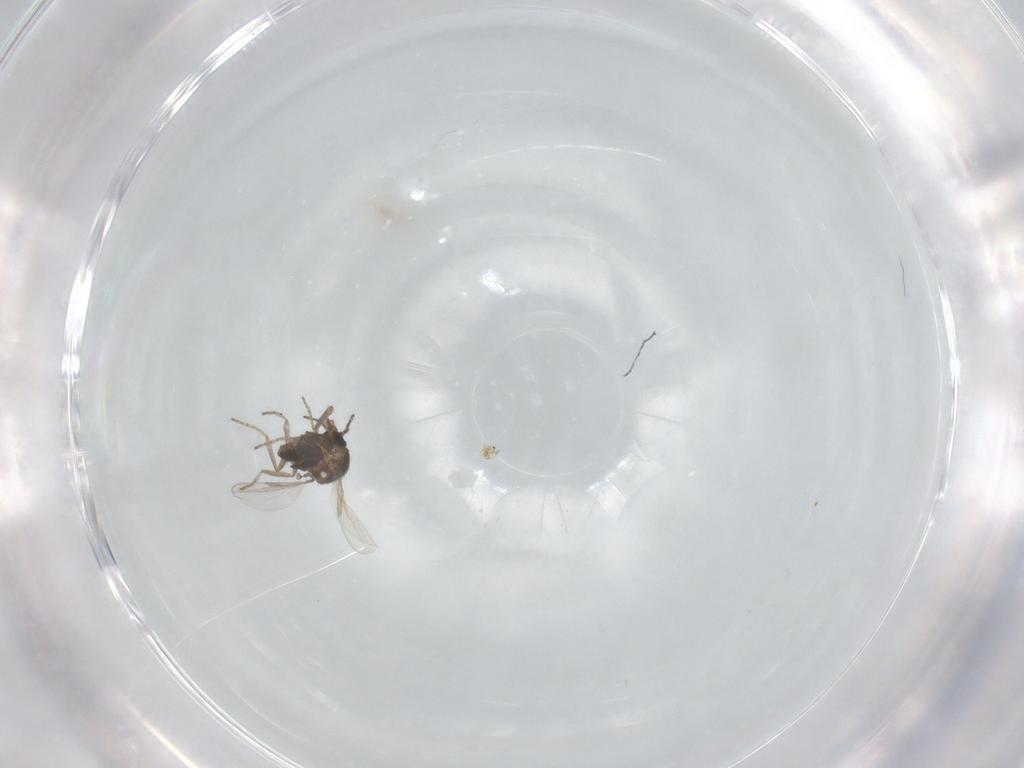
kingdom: Animalia
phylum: Arthropoda
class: Insecta
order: Diptera
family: Ceratopogonidae
